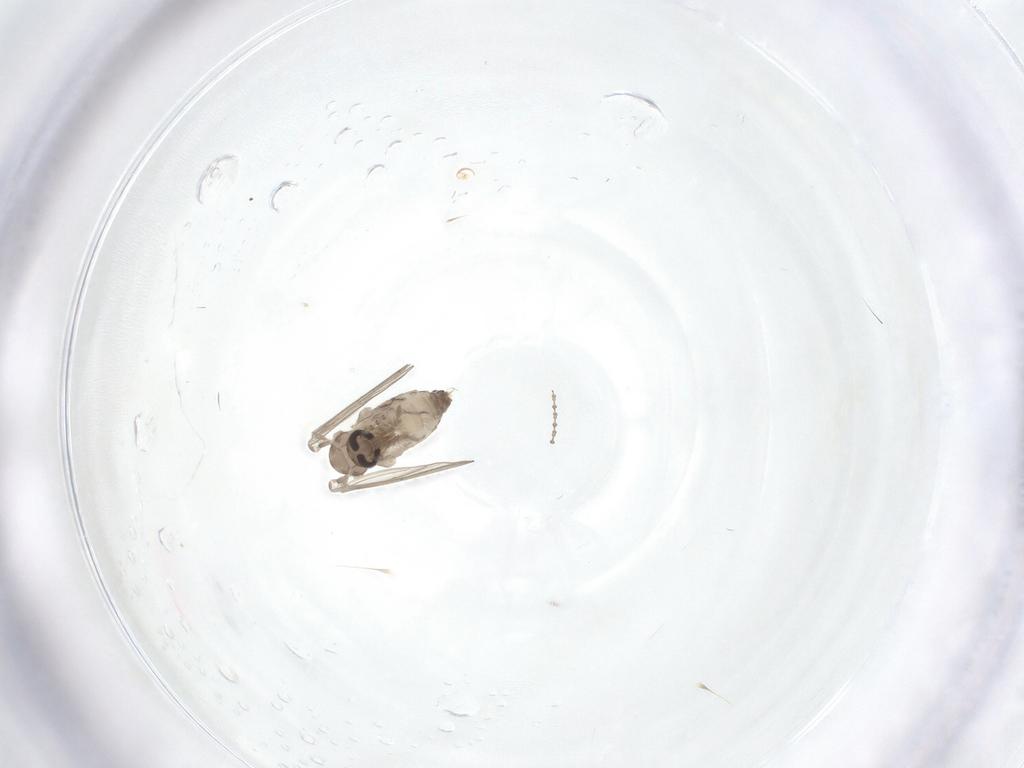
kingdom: Animalia
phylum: Arthropoda
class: Insecta
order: Diptera
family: Psychodidae
